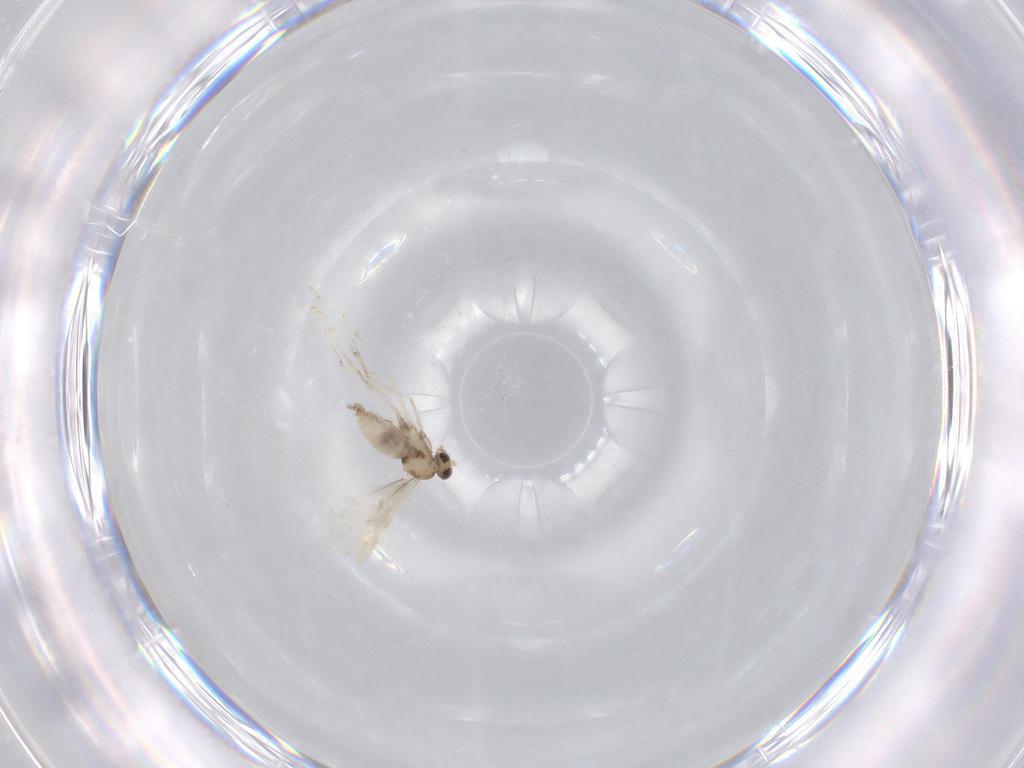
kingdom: Animalia
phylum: Arthropoda
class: Insecta
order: Diptera
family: Cecidomyiidae
